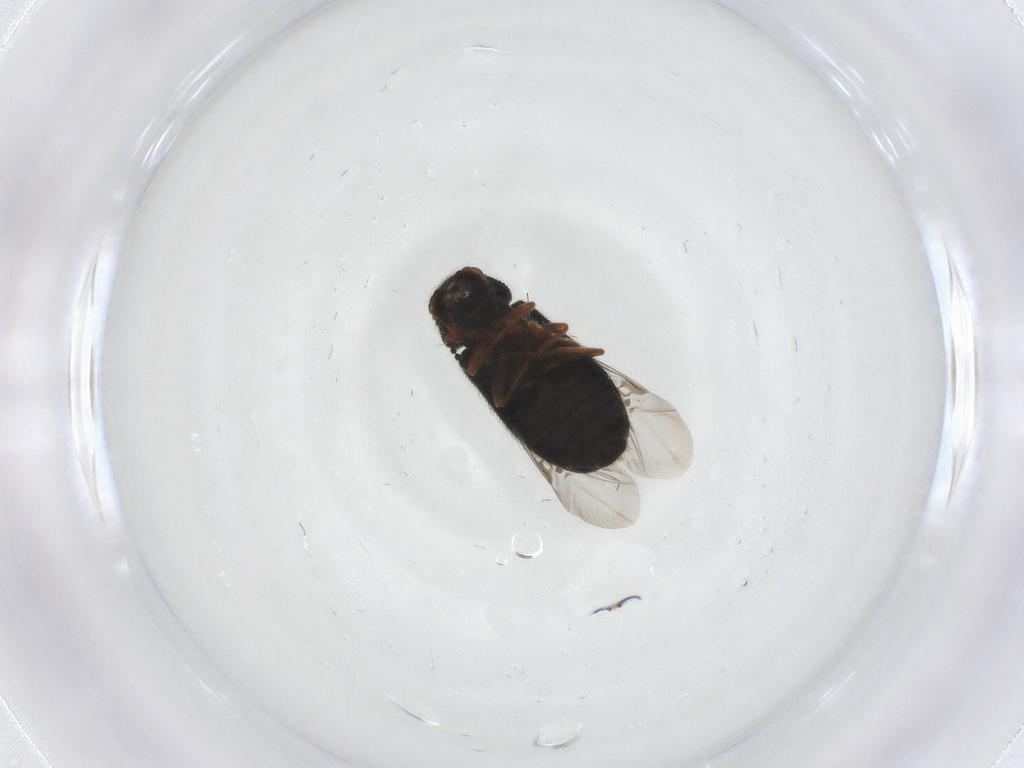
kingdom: Animalia
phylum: Arthropoda
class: Insecta
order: Coleoptera
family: Melyridae
